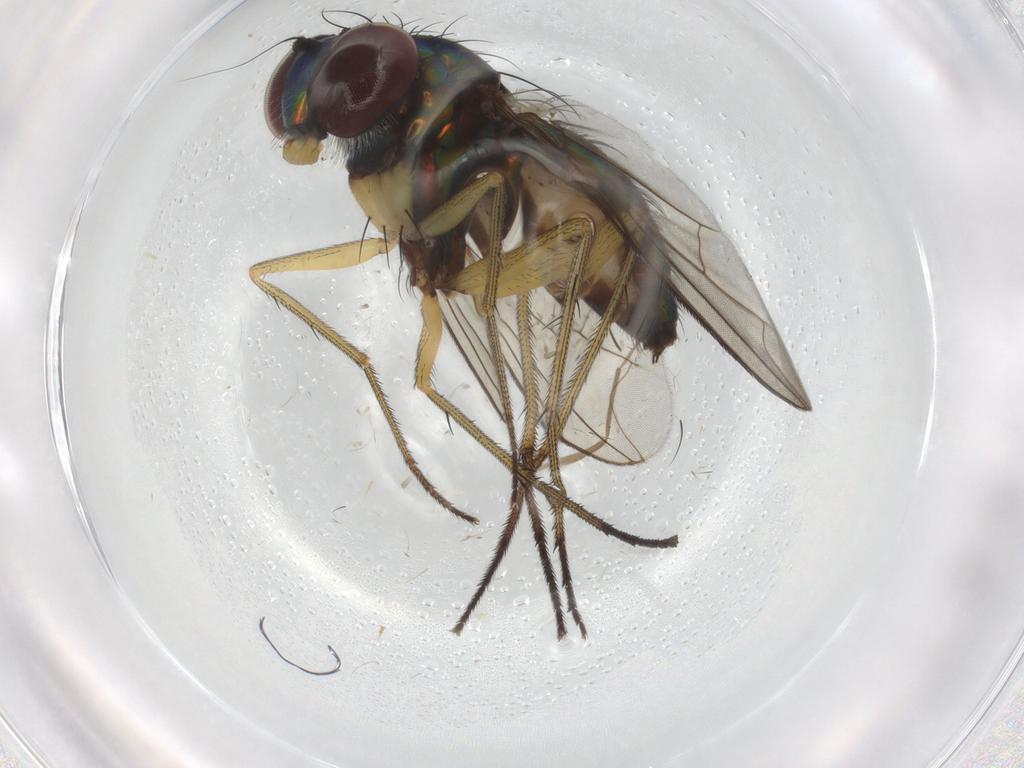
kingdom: Animalia
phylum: Arthropoda
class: Insecta
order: Diptera
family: Dolichopodidae
